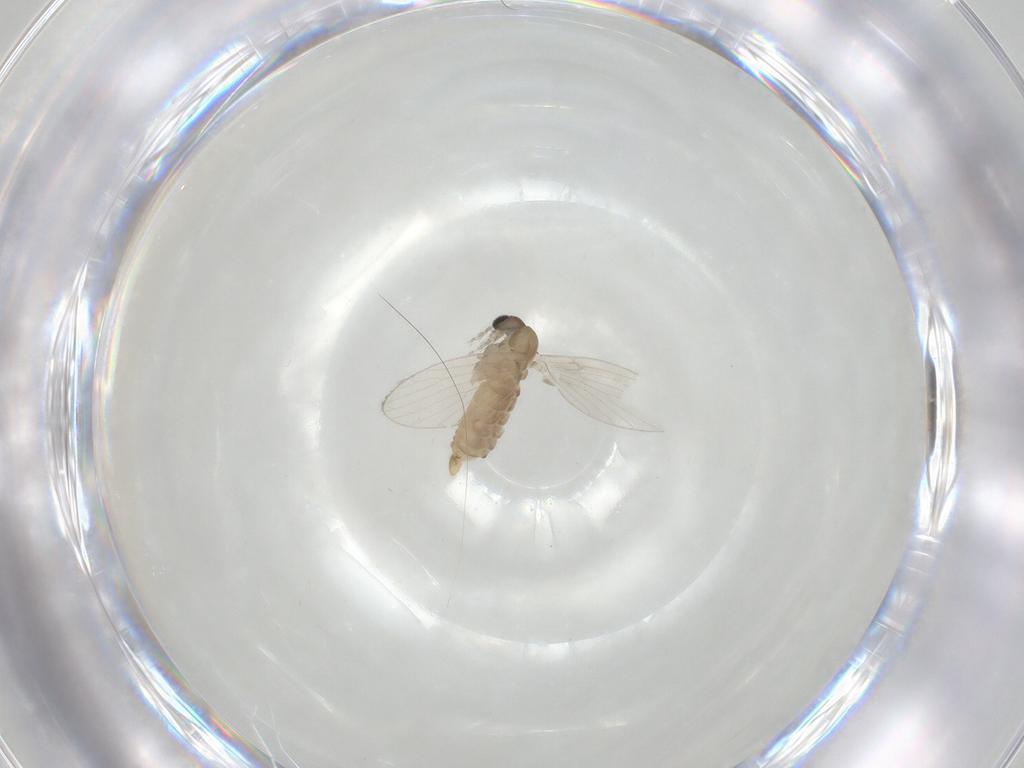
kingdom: Animalia
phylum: Arthropoda
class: Insecta
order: Diptera
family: Psychodidae
